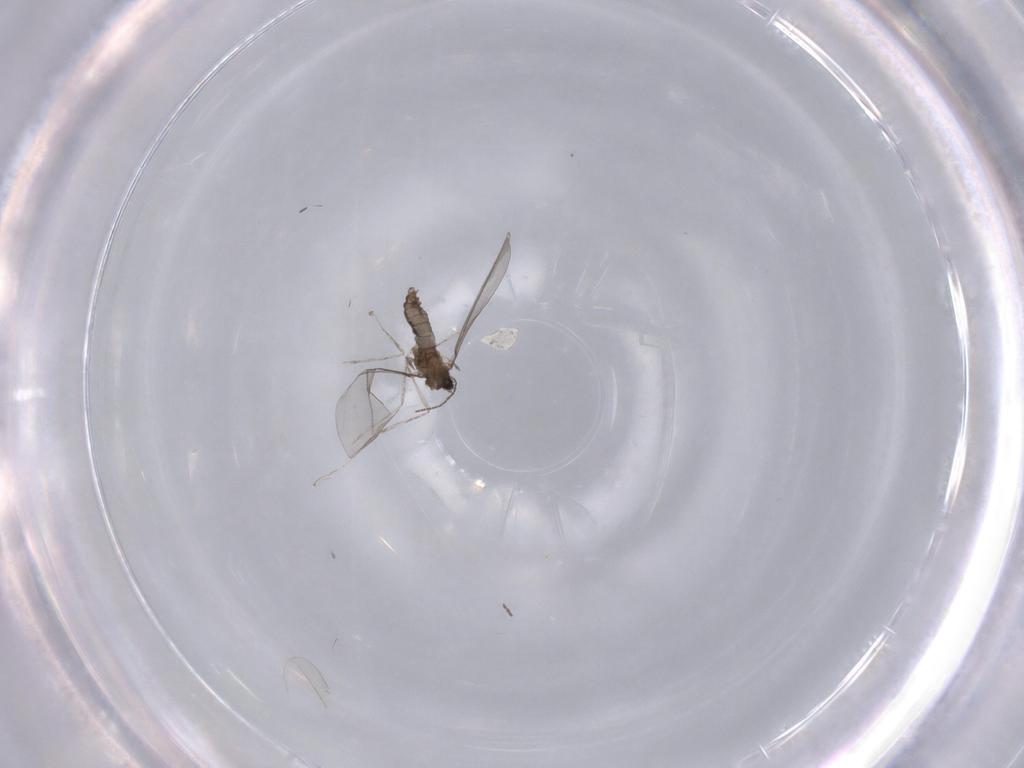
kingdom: Animalia
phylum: Arthropoda
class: Insecta
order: Diptera
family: Cecidomyiidae
